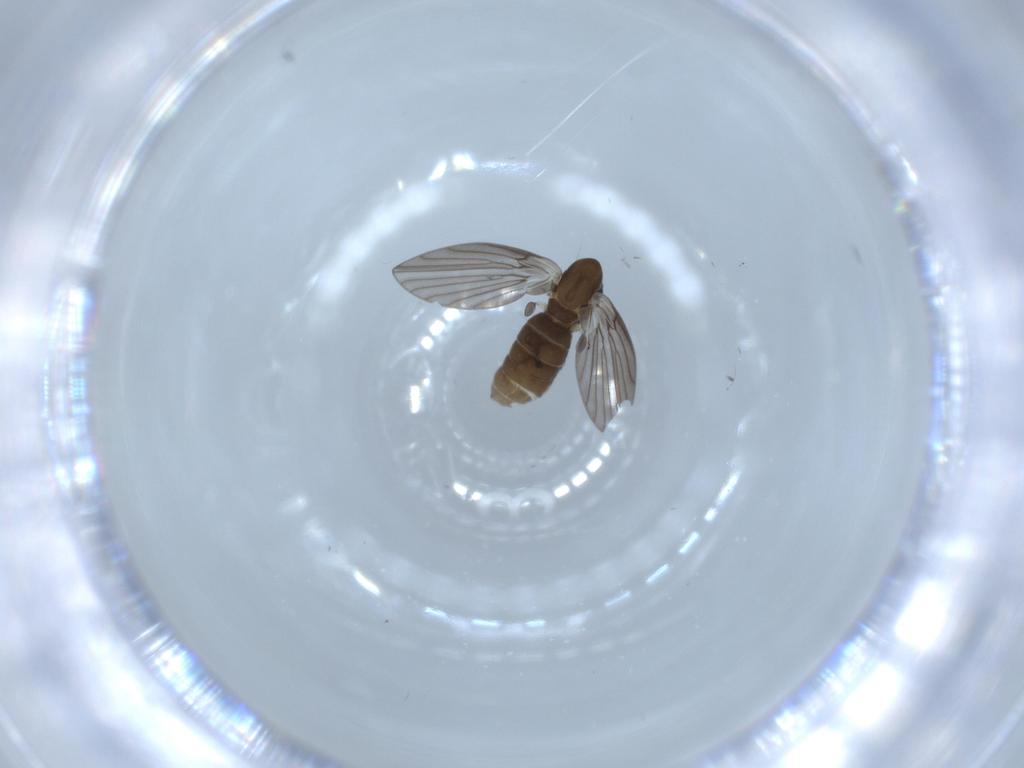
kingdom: Animalia
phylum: Arthropoda
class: Insecta
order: Diptera
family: Psychodidae
